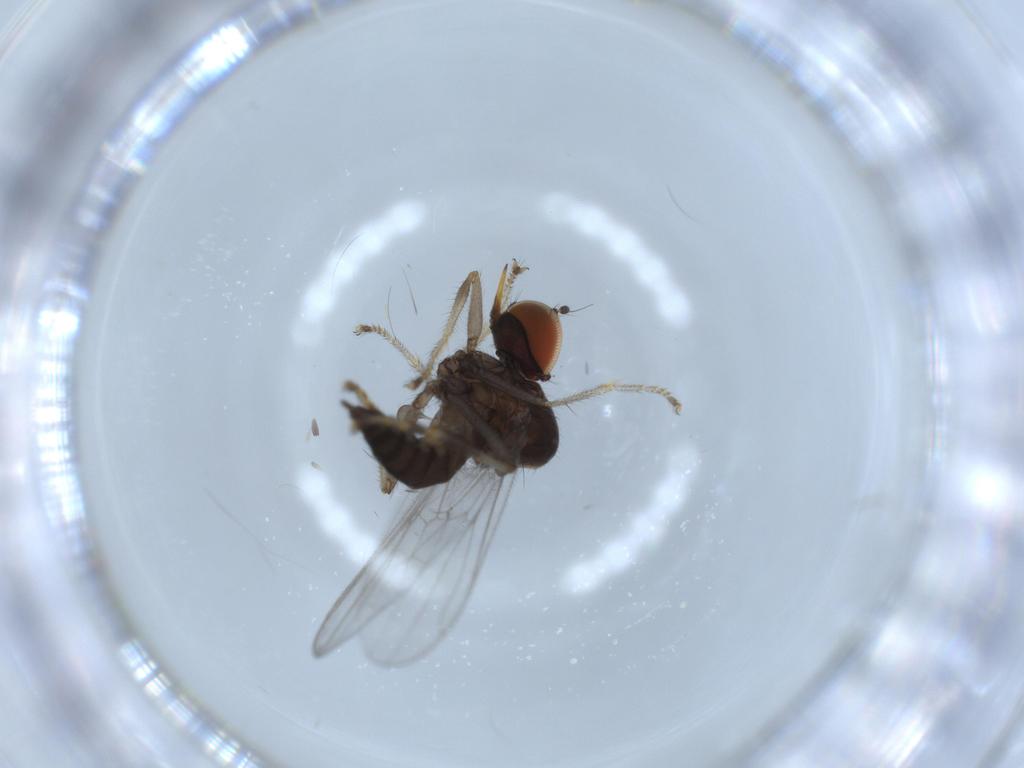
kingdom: Animalia
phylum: Arthropoda
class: Insecta
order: Diptera
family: Hybotidae
